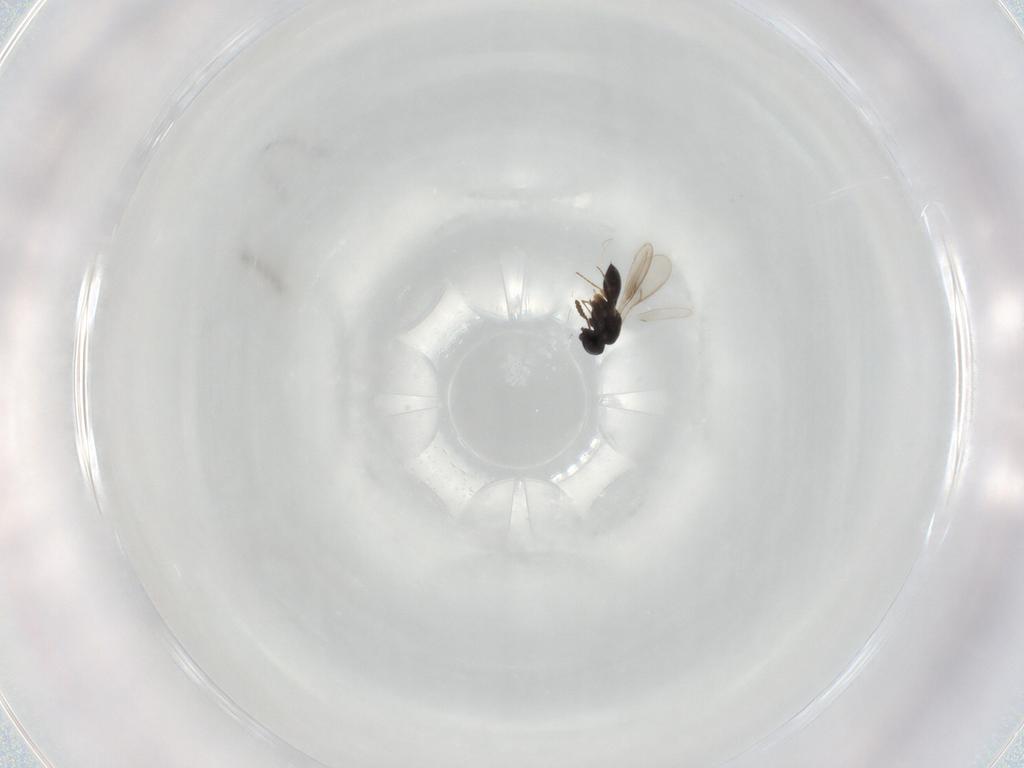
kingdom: Animalia
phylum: Arthropoda
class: Insecta
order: Hymenoptera
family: Scelionidae
